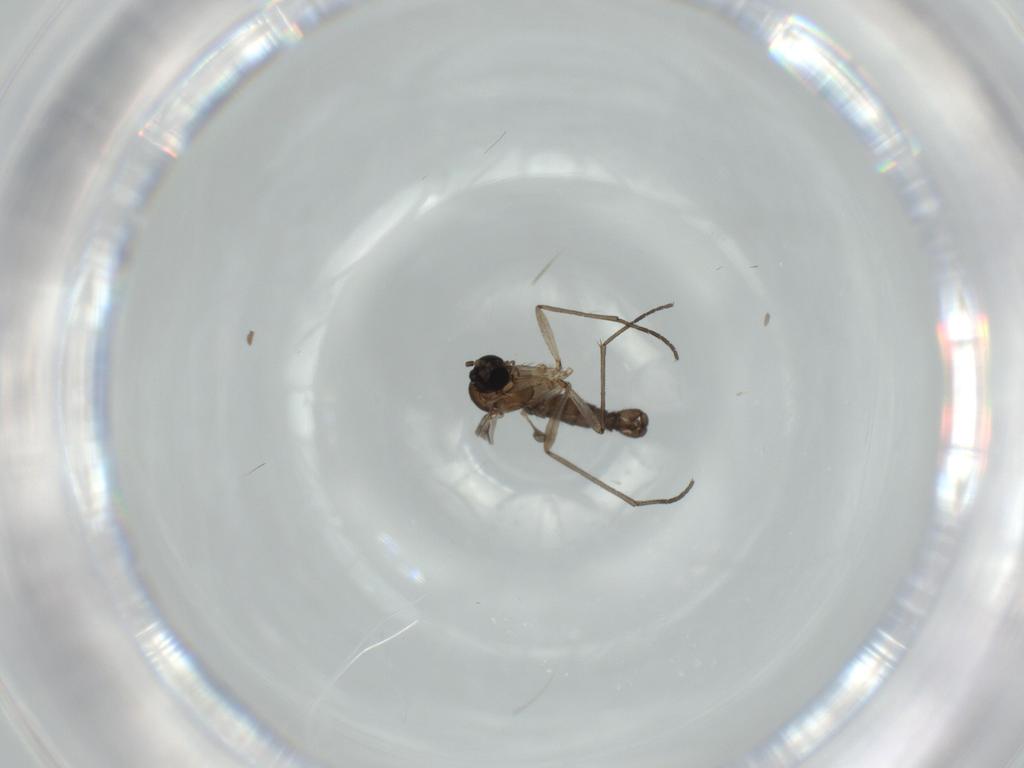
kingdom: Animalia
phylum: Arthropoda
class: Insecta
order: Diptera
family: Sciaridae
